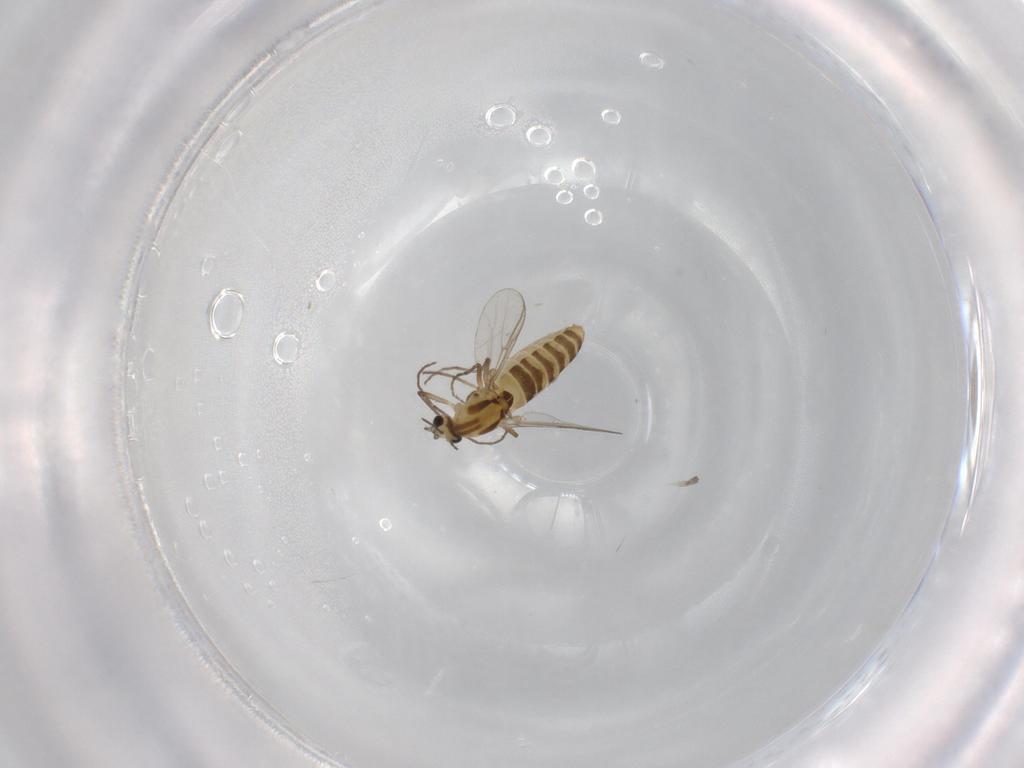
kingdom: Animalia
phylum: Arthropoda
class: Insecta
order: Diptera
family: Chironomidae
